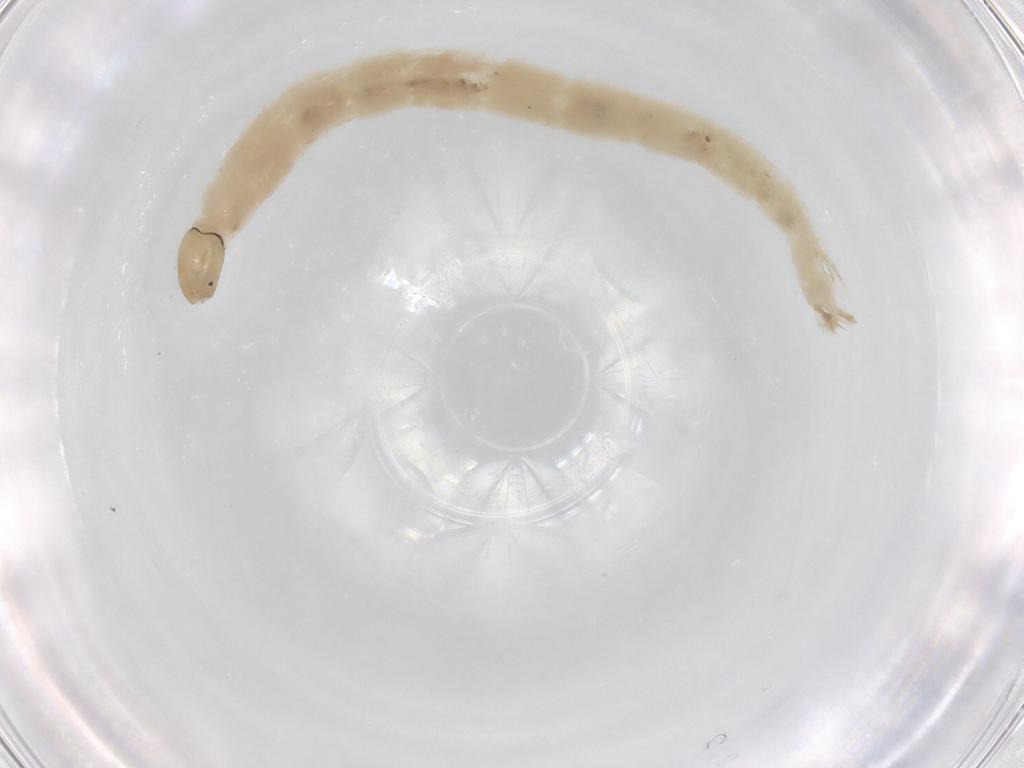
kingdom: Animalia
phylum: Arthropoda
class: Insecta
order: Diptera
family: Chironomidae
